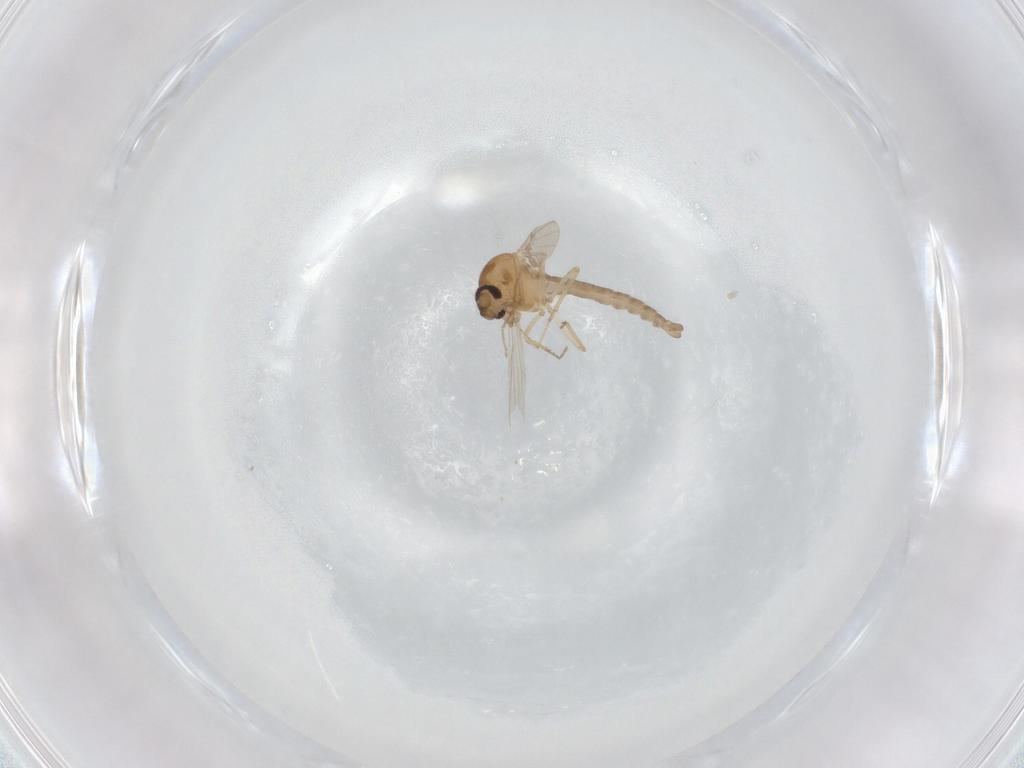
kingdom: Animalia
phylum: Arthropoda
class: Insecta
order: Diptera
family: Ceratopogonidae
